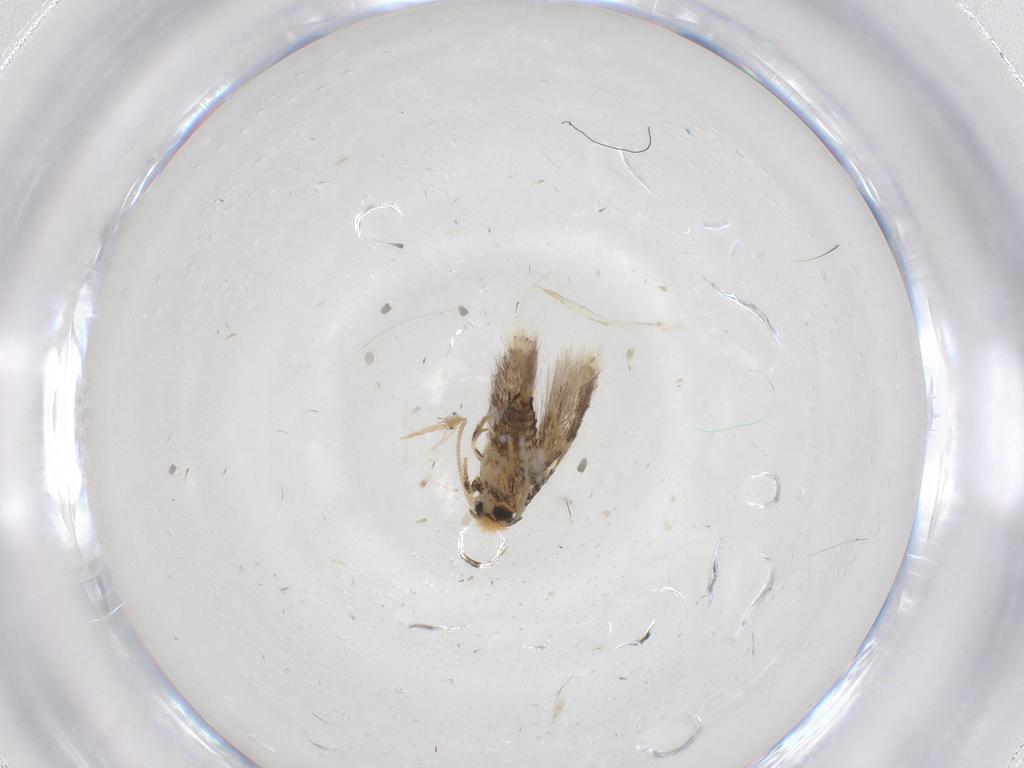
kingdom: Animalia
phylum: Arthropoda
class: Insecta
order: Lepidoptera
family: Nepticulidae
